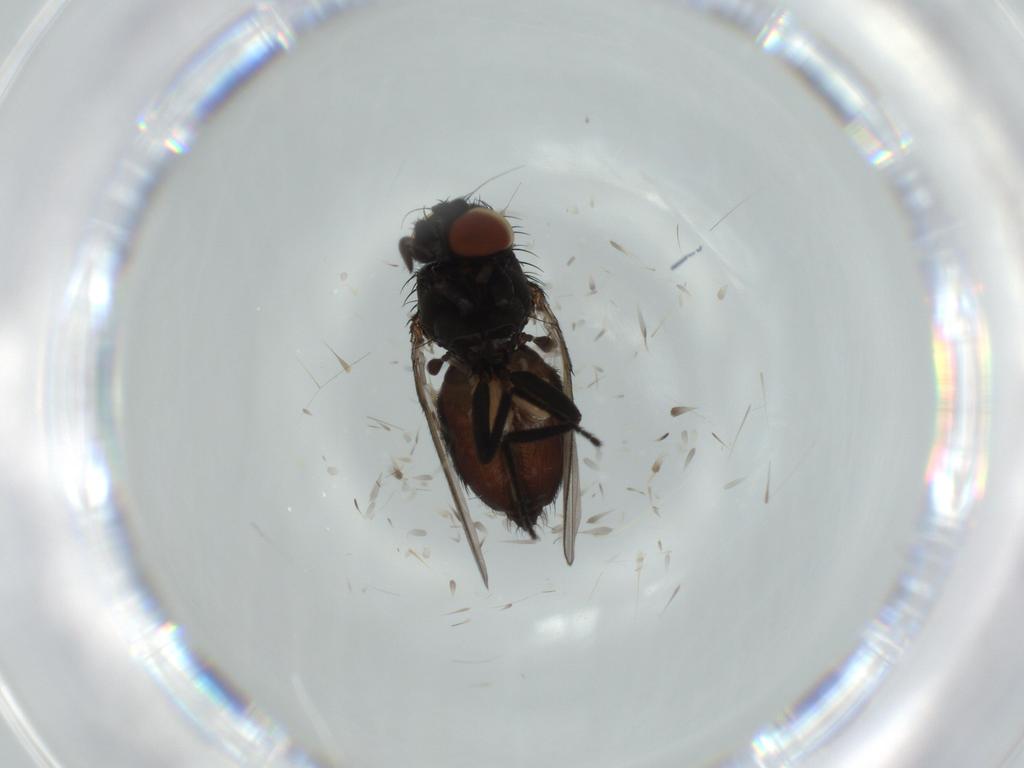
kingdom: Animalia
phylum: Arthropoda
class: Insecta
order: Diptera
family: Milichiidae
